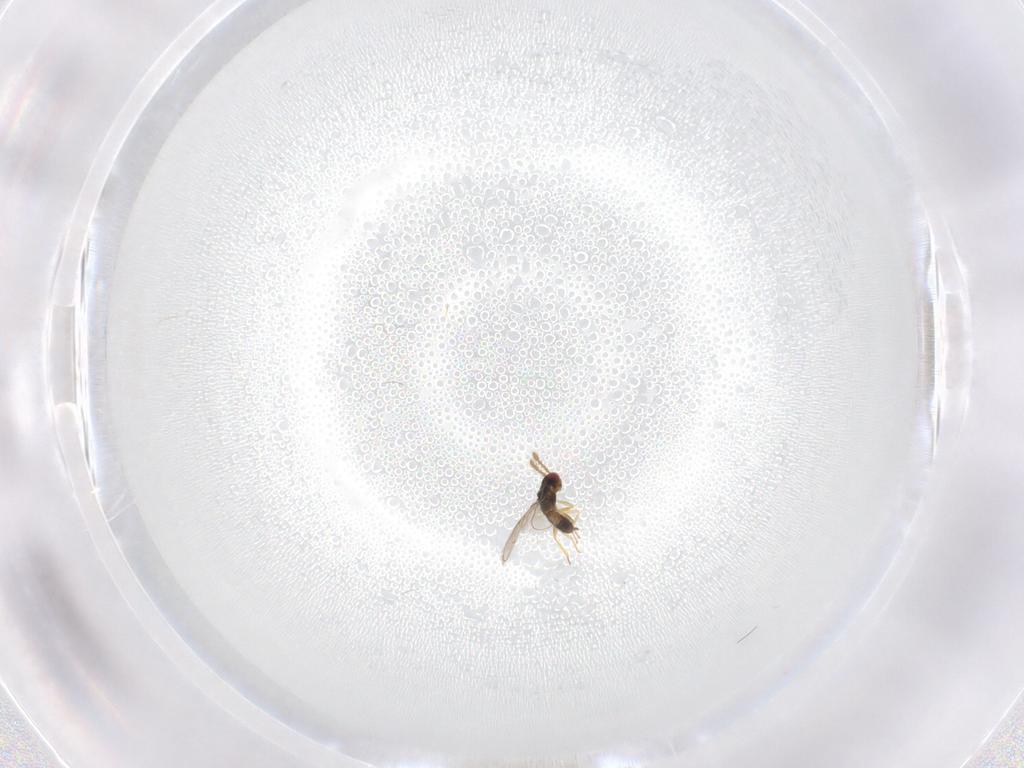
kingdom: Animalia
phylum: Arthropoda
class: Insecta
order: Hymenoptera
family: Eulophidae
